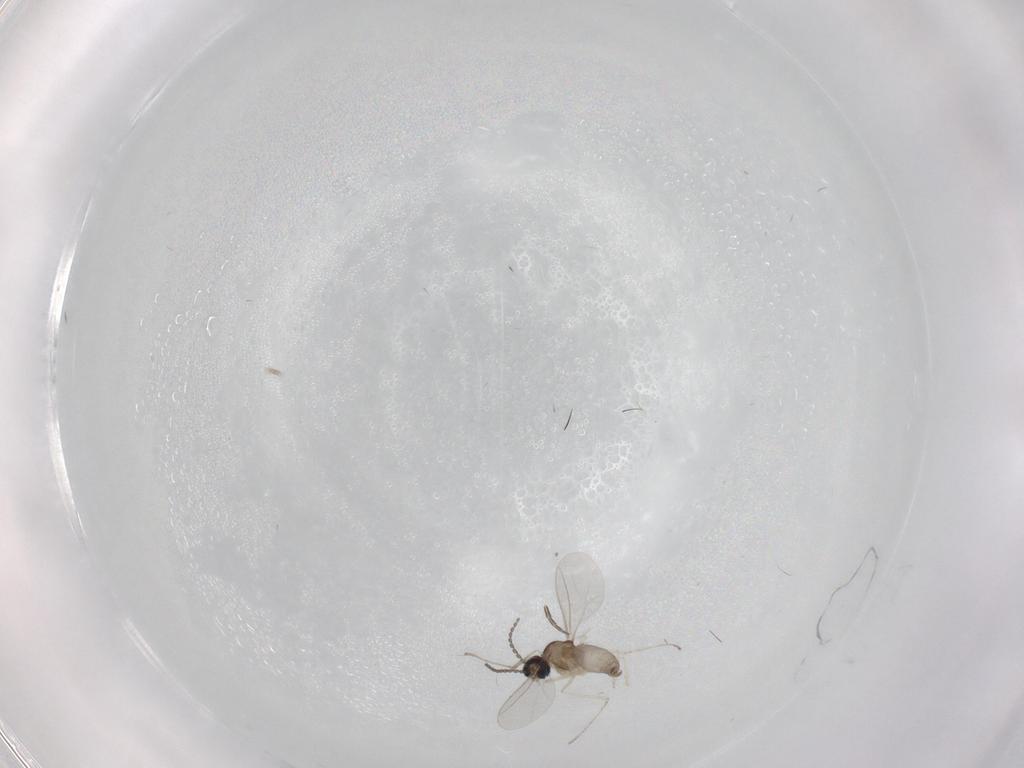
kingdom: Animalia
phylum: Arthropoda
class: Insecta
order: Diptera
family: Cecidomyiidae
